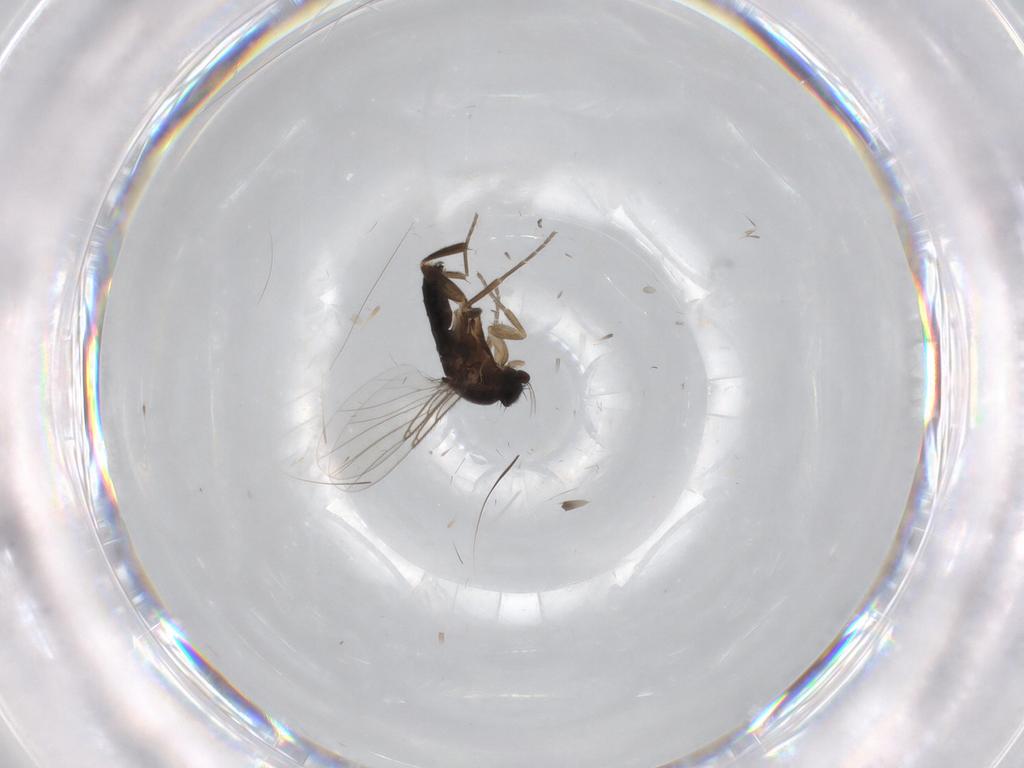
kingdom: Animalia
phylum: Arthropoda
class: Insecta
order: Diptera
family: Phoridae
